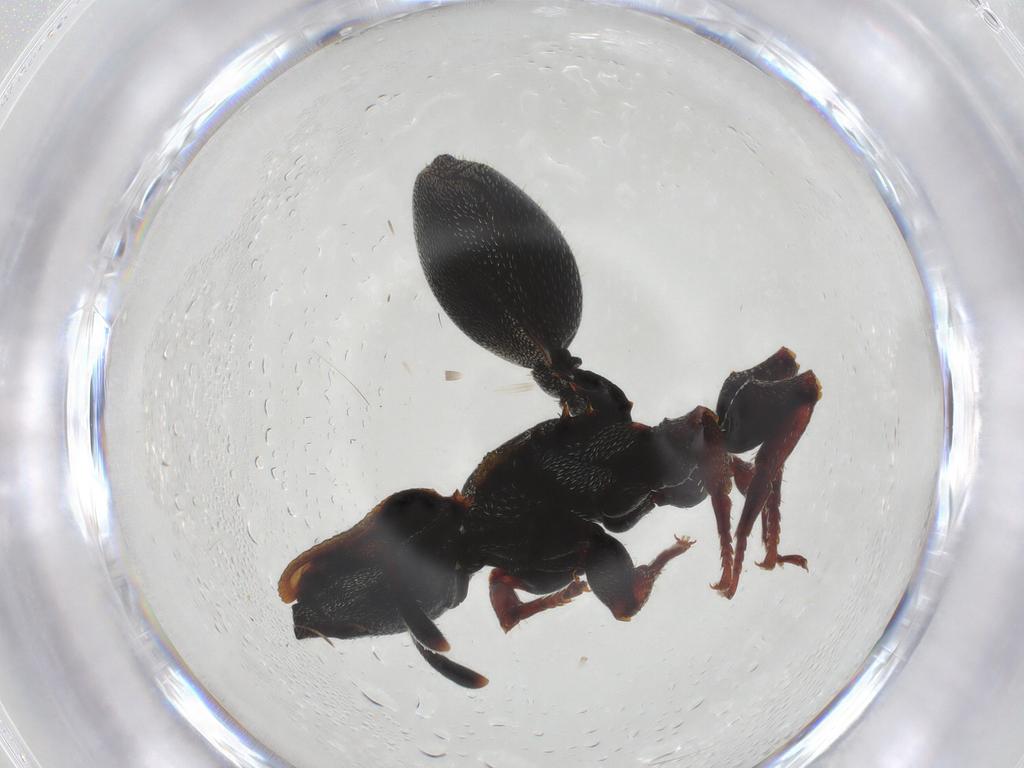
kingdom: Animalia
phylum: Arthropoda
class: Insecta
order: Hymenoptera
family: Formicidae
